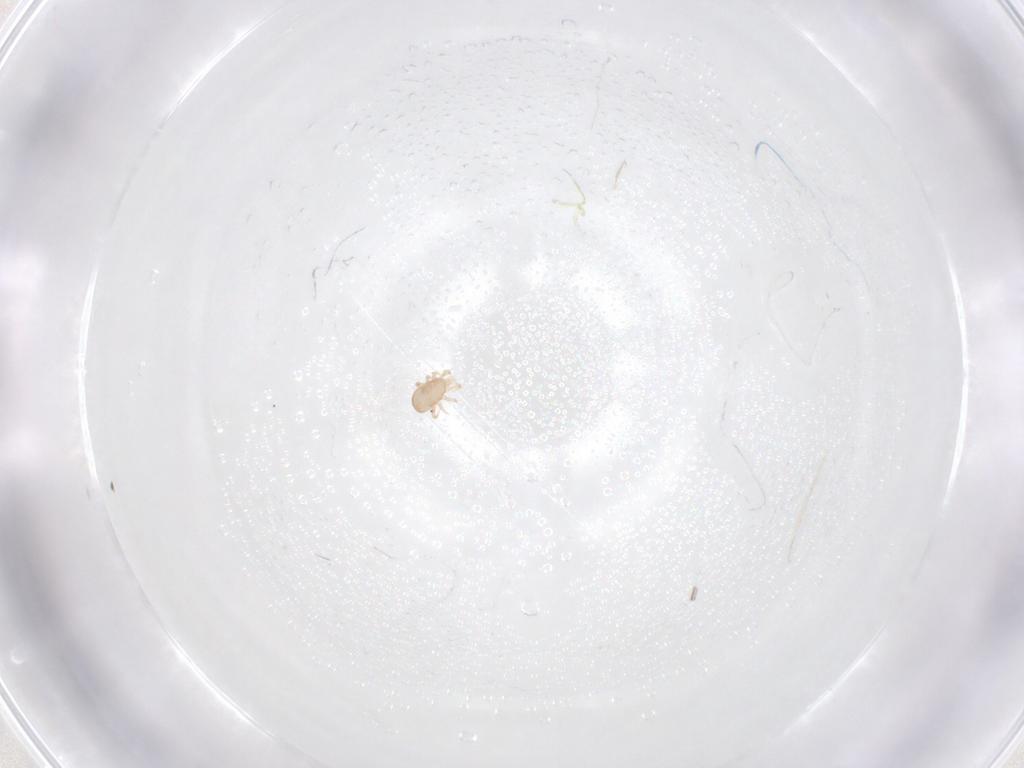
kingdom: Animalia
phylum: Arthropoda
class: Arachnida
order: Mesostigmata
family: Ascidae
